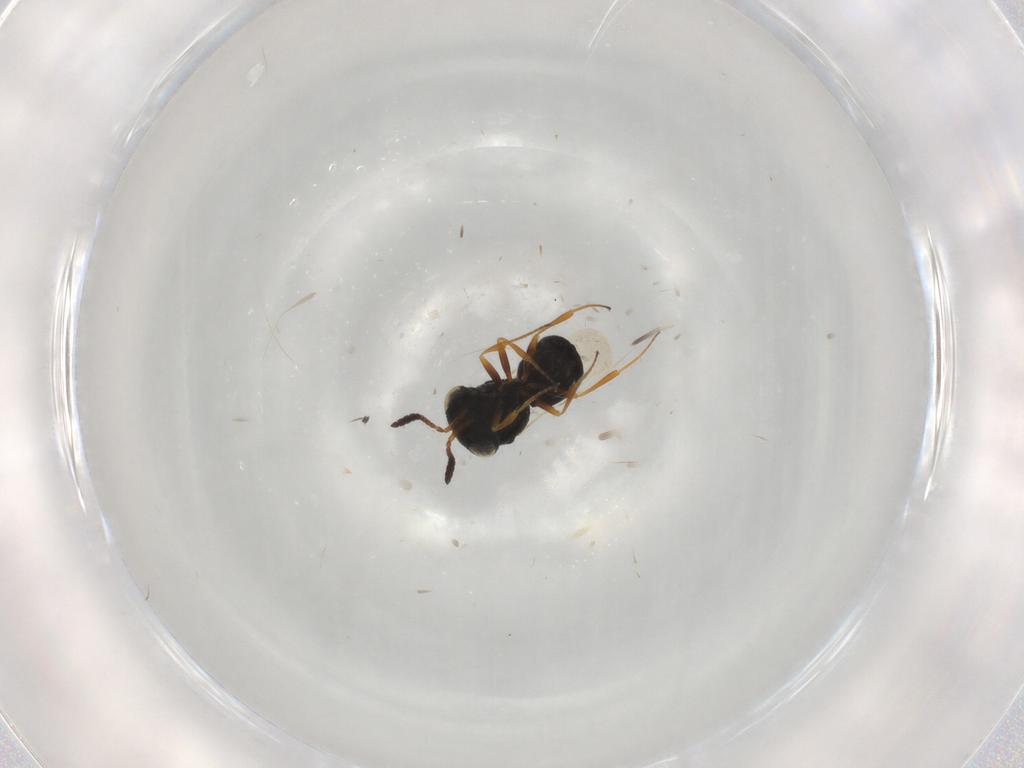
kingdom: Animalia
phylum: Arthropoda
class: Insecta
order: Hymenoptera
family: Scelionidae
